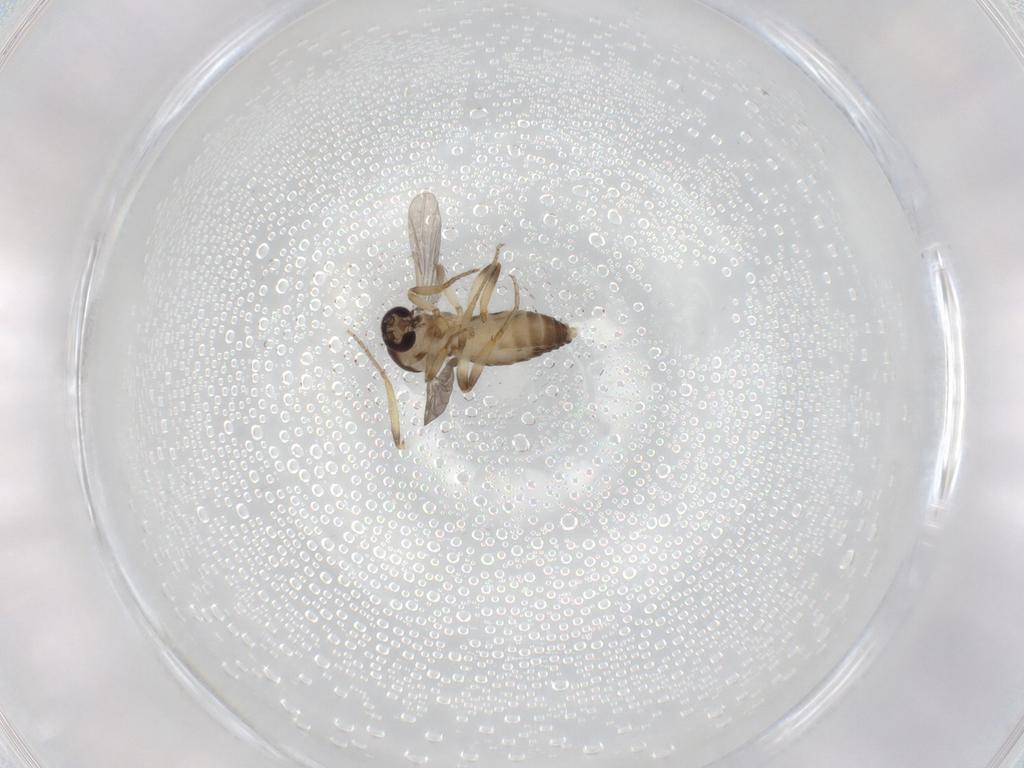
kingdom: Animalia
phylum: Arthropoda
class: Insecta
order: Diptera
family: Ceratopogonidae
